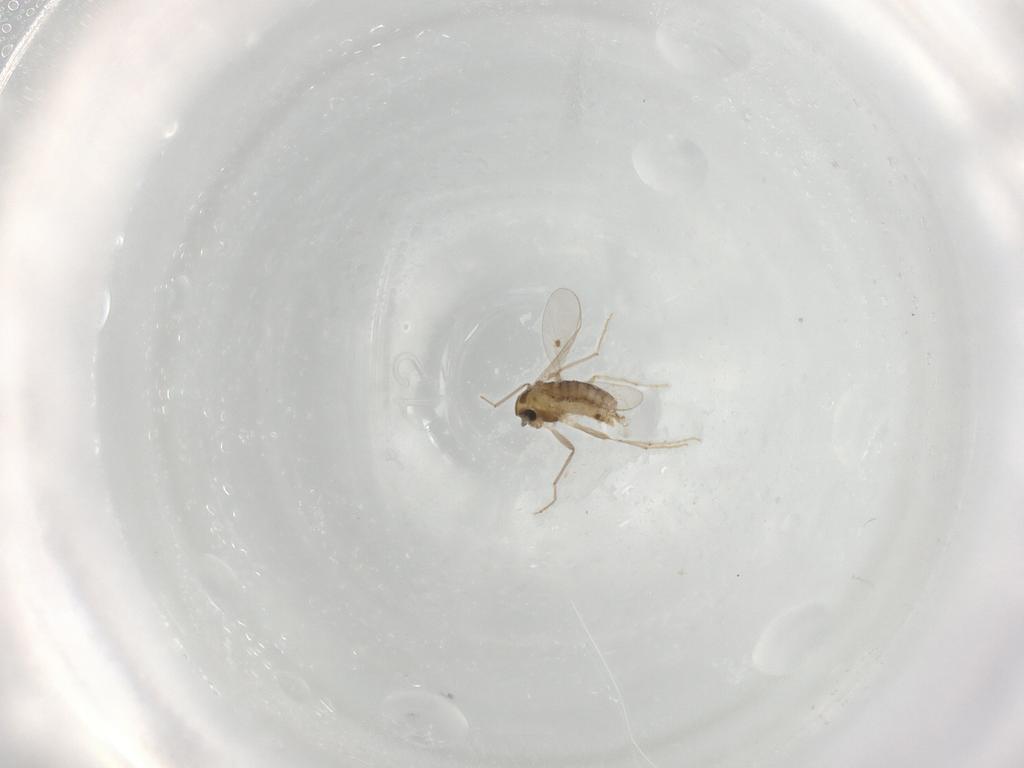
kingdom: Animalia
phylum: Arthropoda
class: Insecta
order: Diptera
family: Chironomidae
